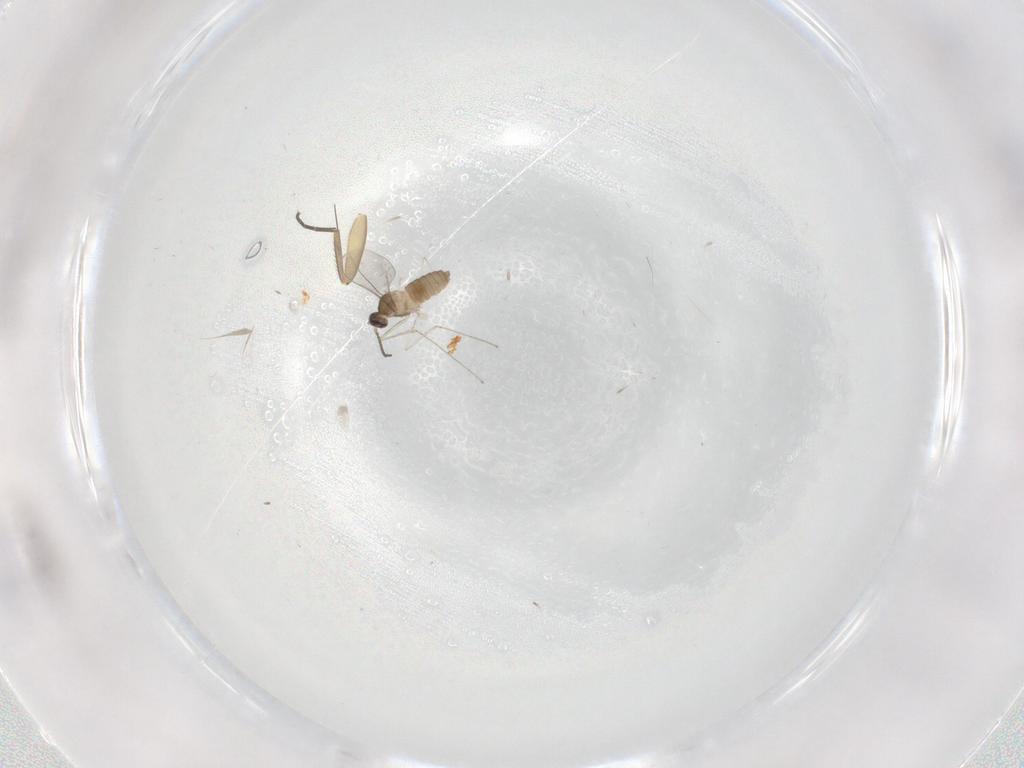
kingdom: Animalia
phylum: Arthropoda
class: Insecta
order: Diptera
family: Cecidomyiidae
